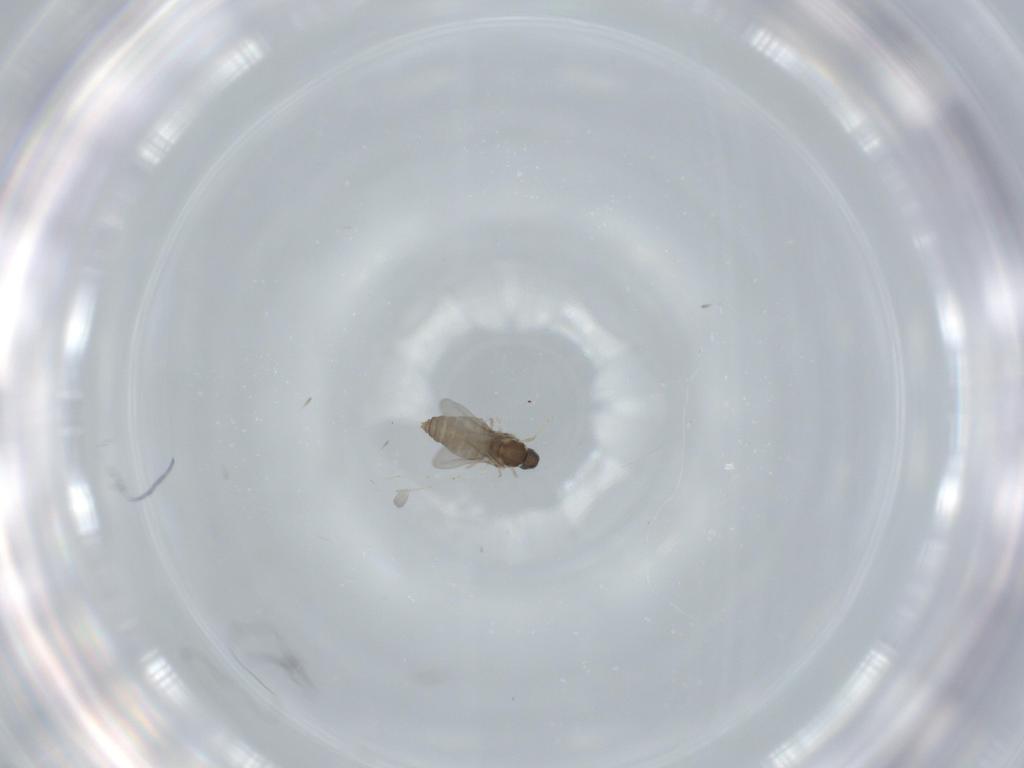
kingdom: Animalia
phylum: Arthropoda
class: Insecta
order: Diptera
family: Cecidomyiidae
